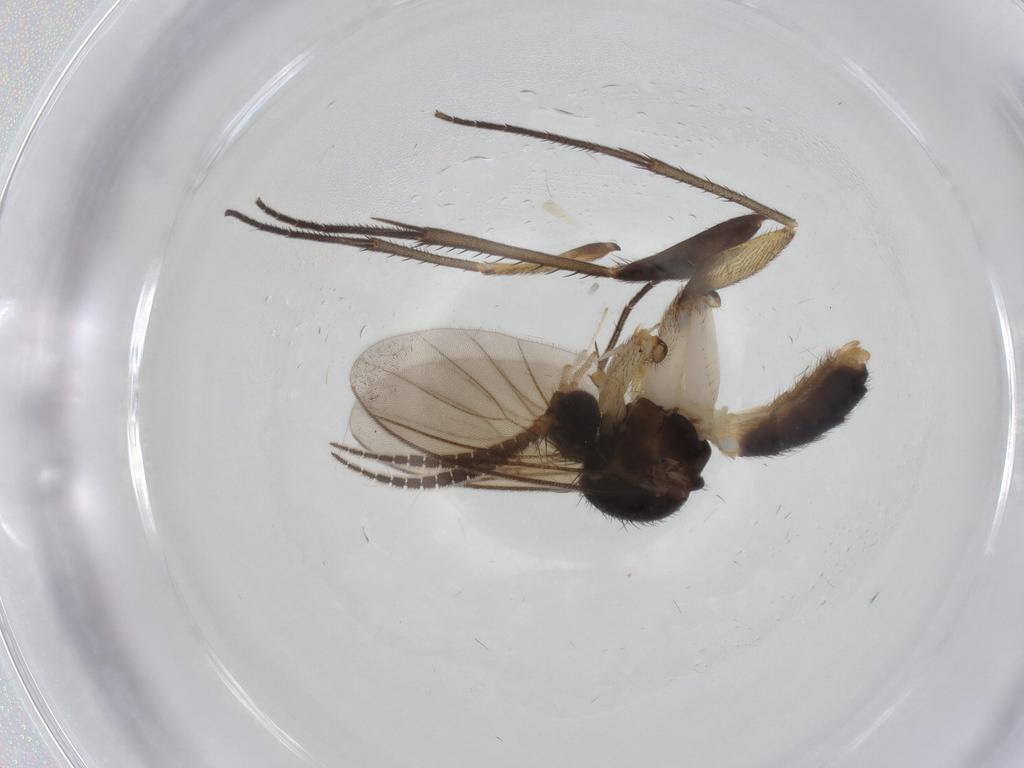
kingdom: Animalia
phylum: Arthropoda
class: Insecta
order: Diptera
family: Chironomidae
